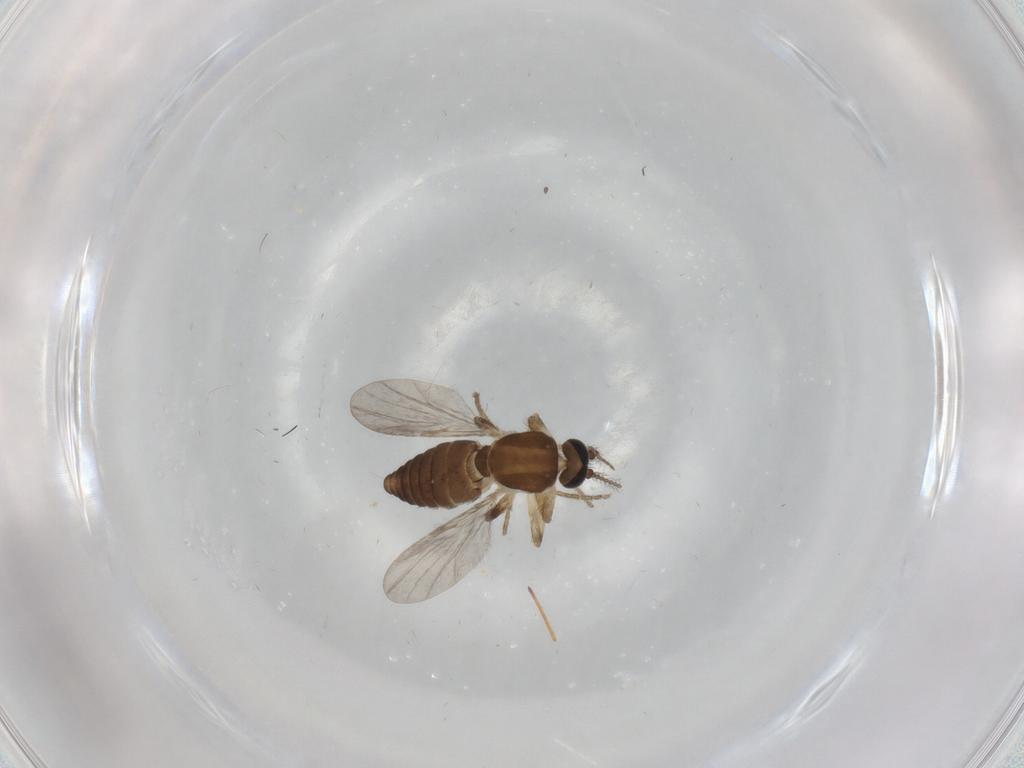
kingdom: Animalia
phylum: Arthropoda
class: Insecta
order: Diptera
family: Ceratopogonidae
